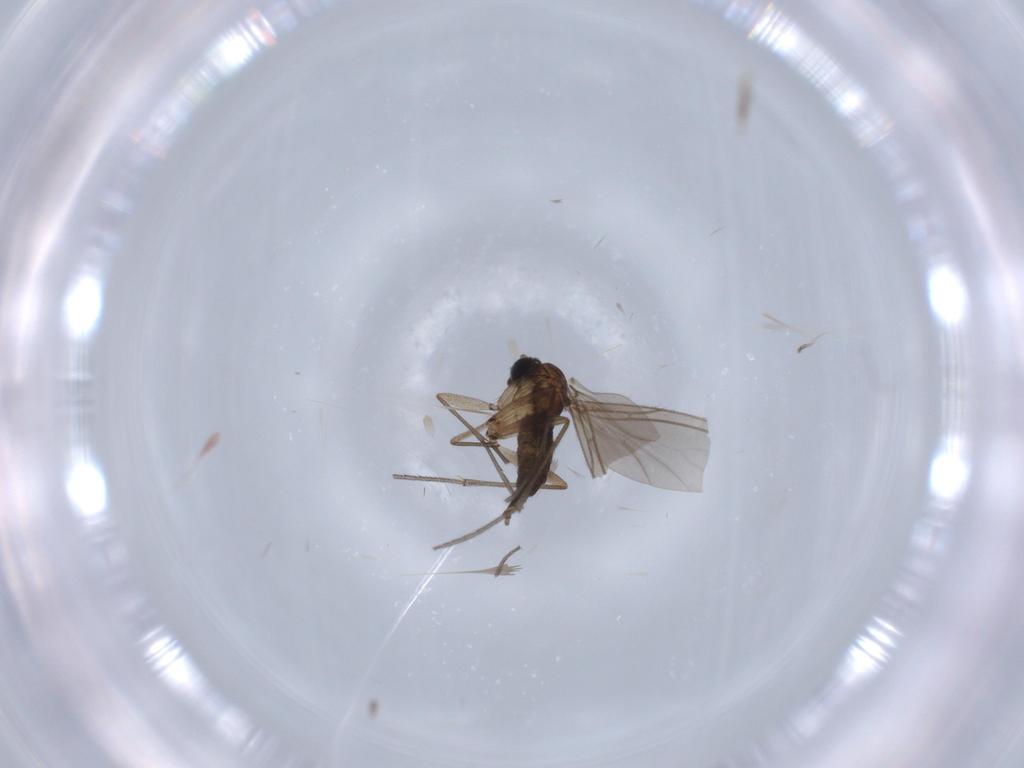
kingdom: Animalia
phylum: Arthropoda
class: Insecta
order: Diptera
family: Sciaridae
